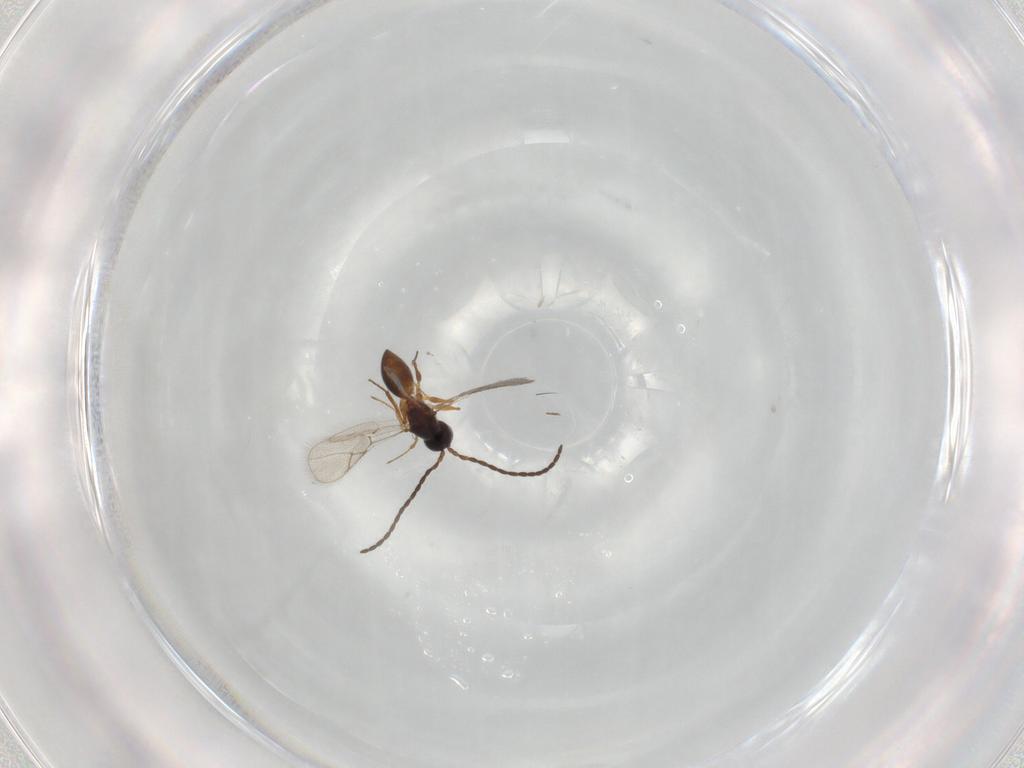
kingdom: Animalia
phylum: Arthropoda
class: Insecta
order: Hymenoptera
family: Figitidae
